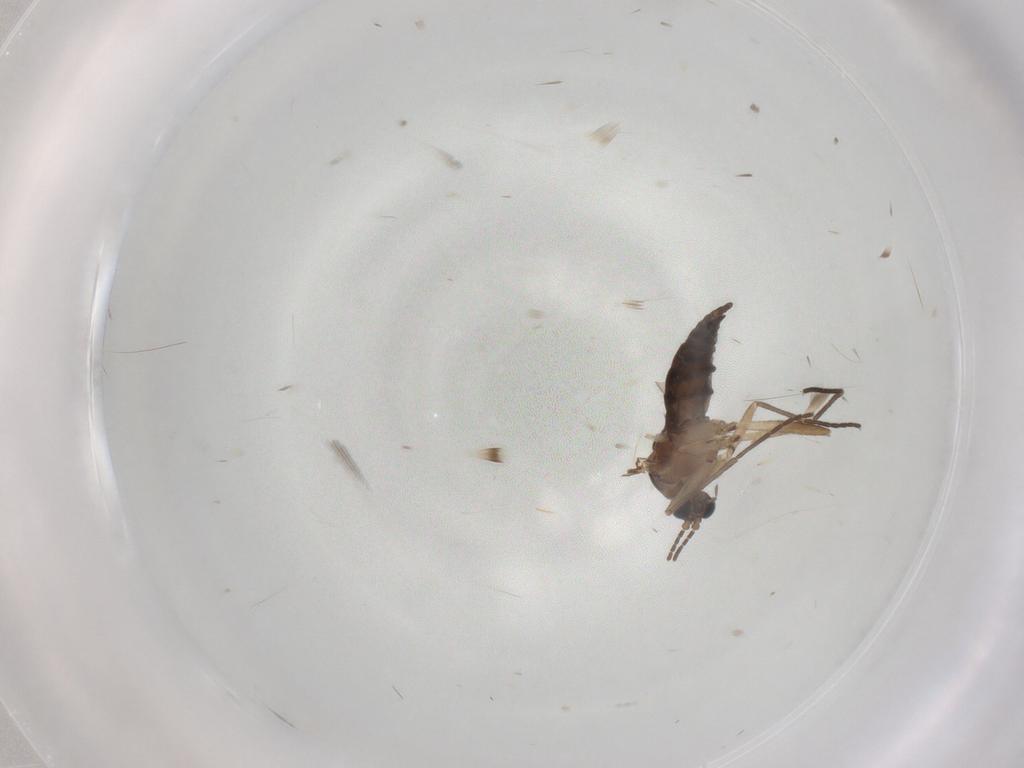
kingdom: Animalia
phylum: Arthropoda
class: Insecta
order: Diptera
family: Sciaridae
